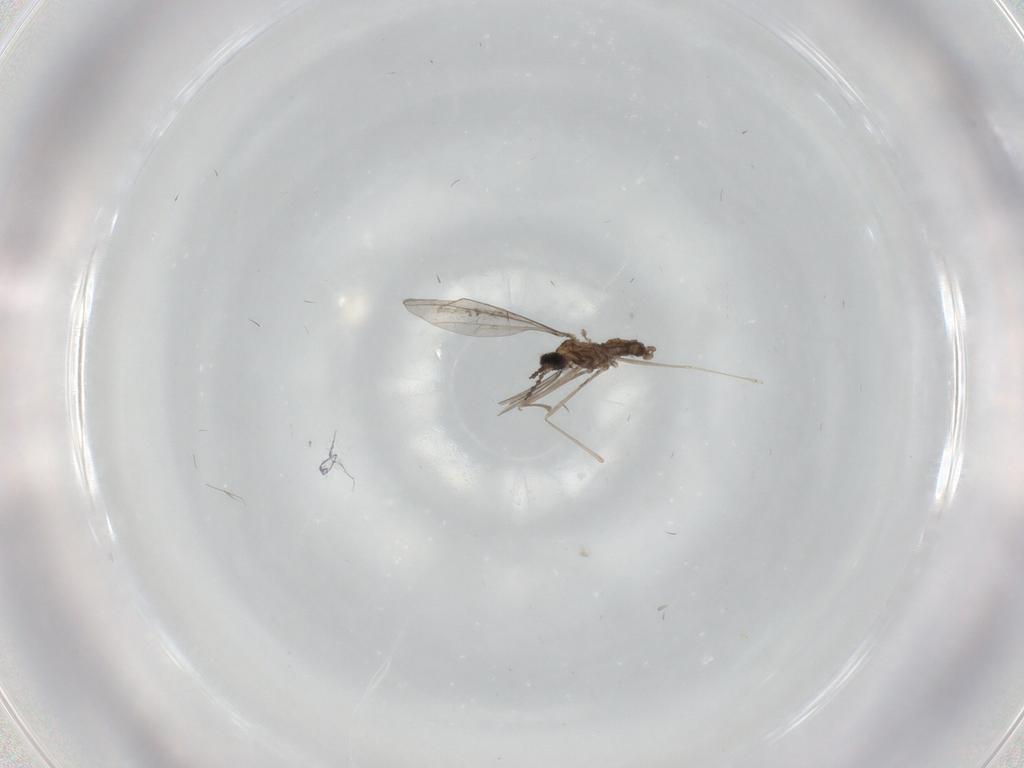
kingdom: Animalia
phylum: Arthropoda
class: Insecta
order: Diptera
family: Cecidomyiidae
